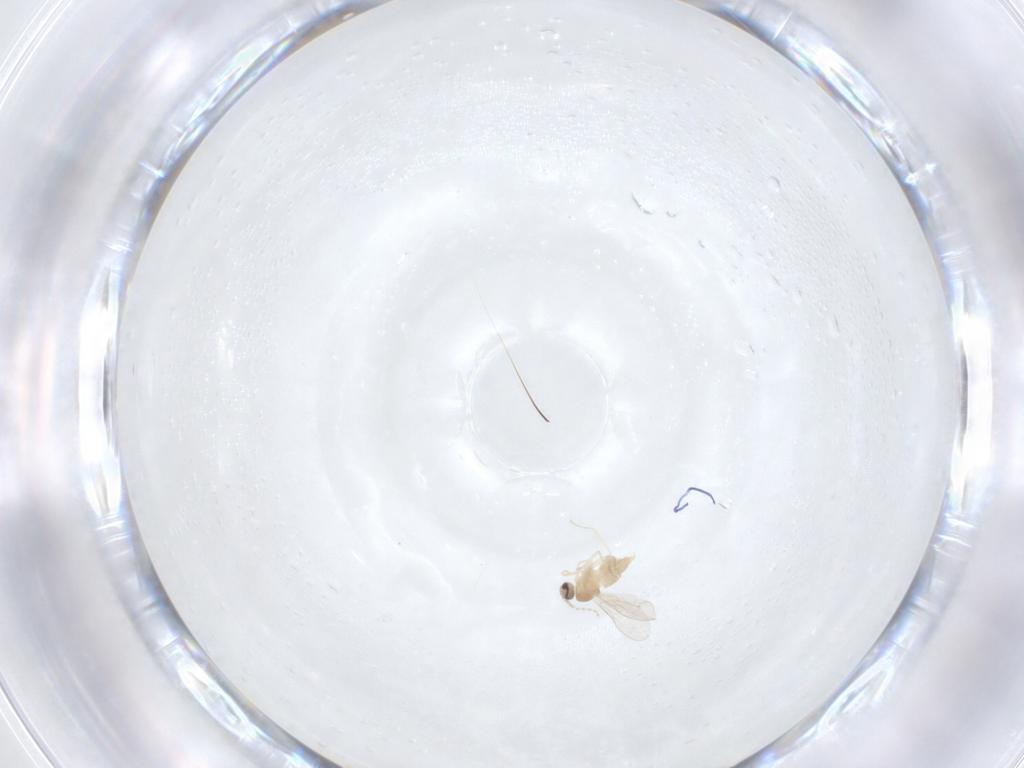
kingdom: Animalia
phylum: Arthropoda
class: Insecta
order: Diptera
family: Cecidomyiidae
